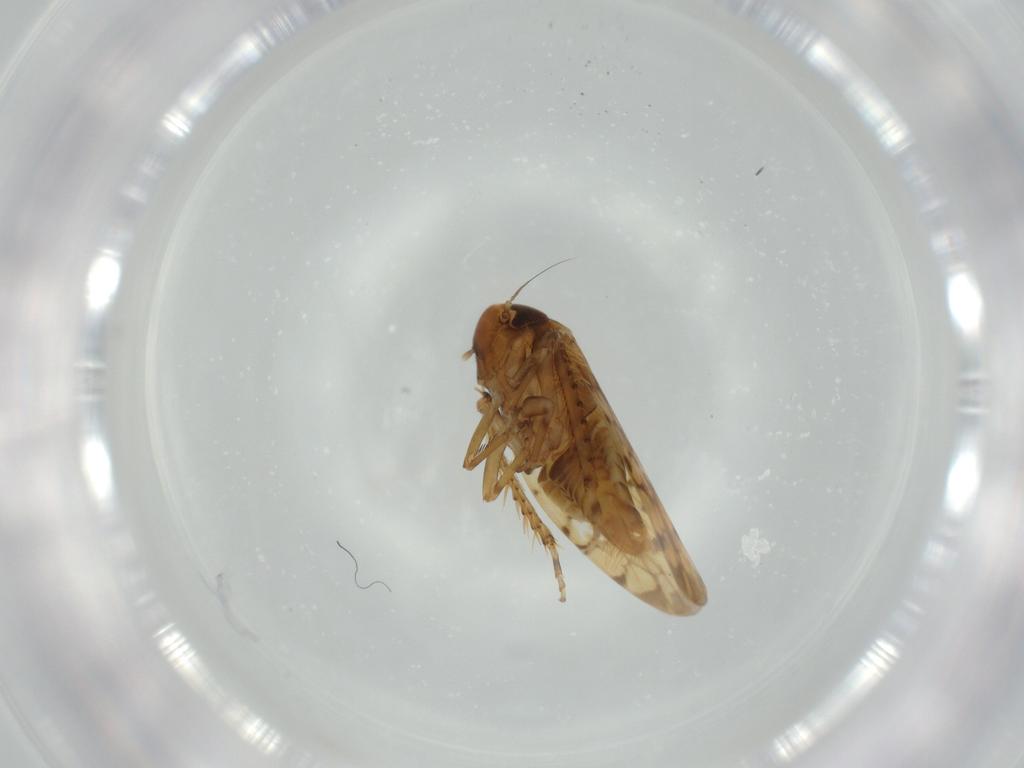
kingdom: Animalia
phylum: Arthropoda
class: Insecta
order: Hemiptera
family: Cicadellidae
